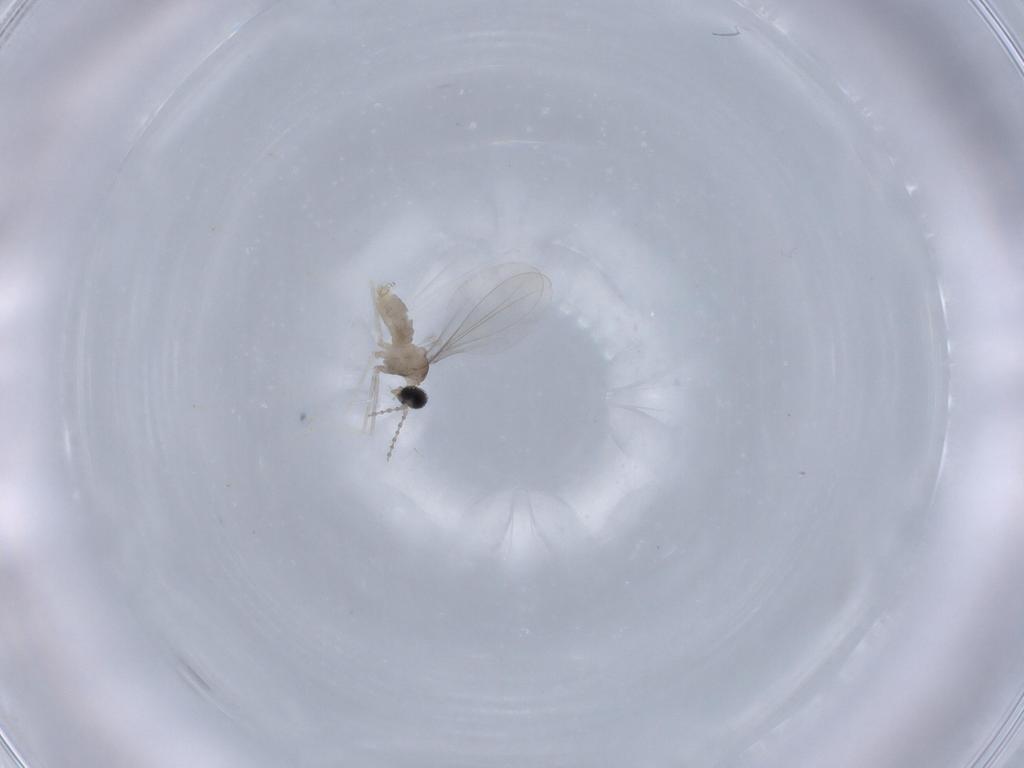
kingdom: Animalia
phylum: Arthropoda
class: Insecta
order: Diptera
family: Cecidomyiidae
